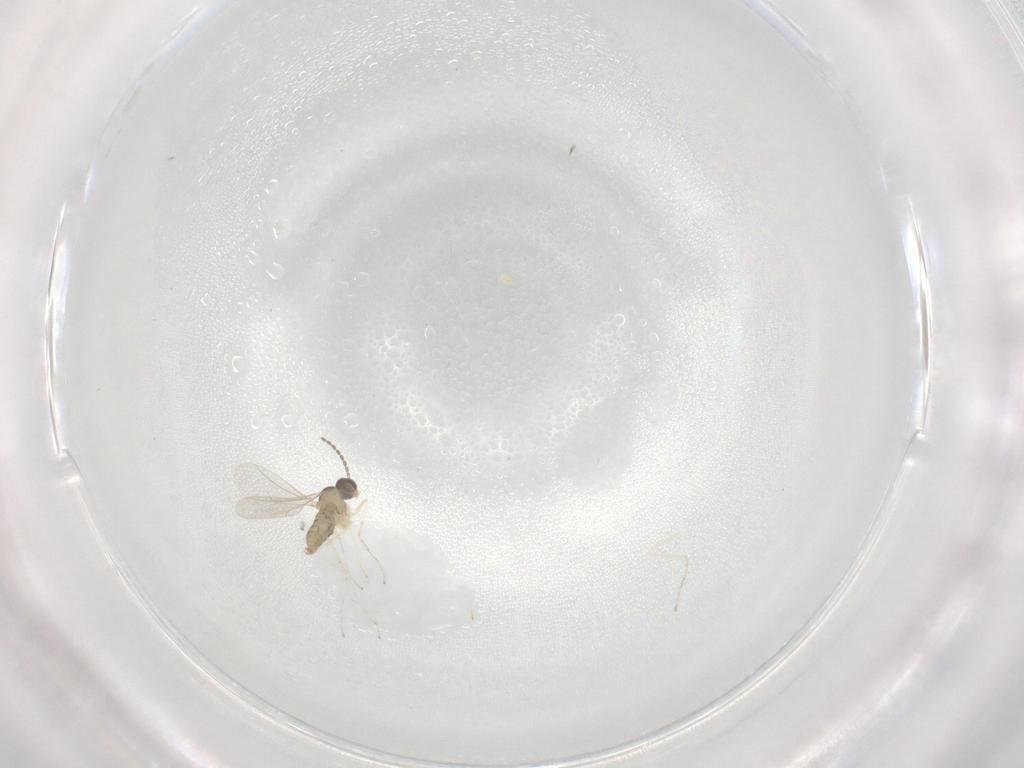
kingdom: Animalia
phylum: Arthropoda
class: Insecta
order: Diptera
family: Cecidomyiidae
